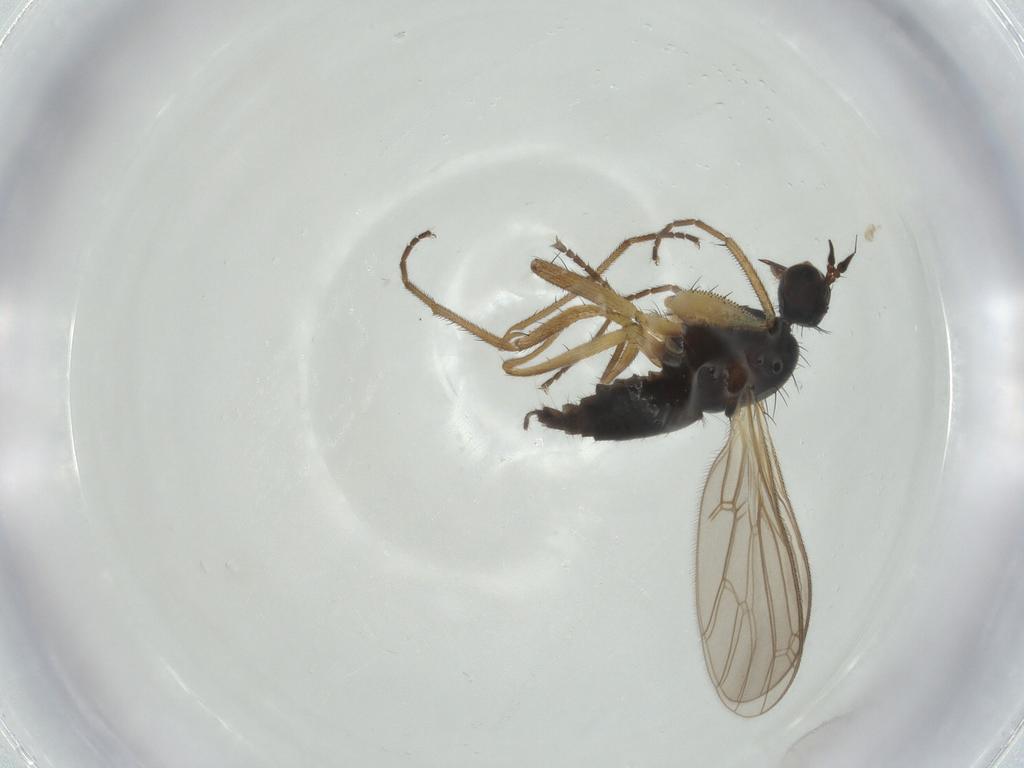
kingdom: Animalia
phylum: Arthropoda
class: Insecta
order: Diptera
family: Empididae
